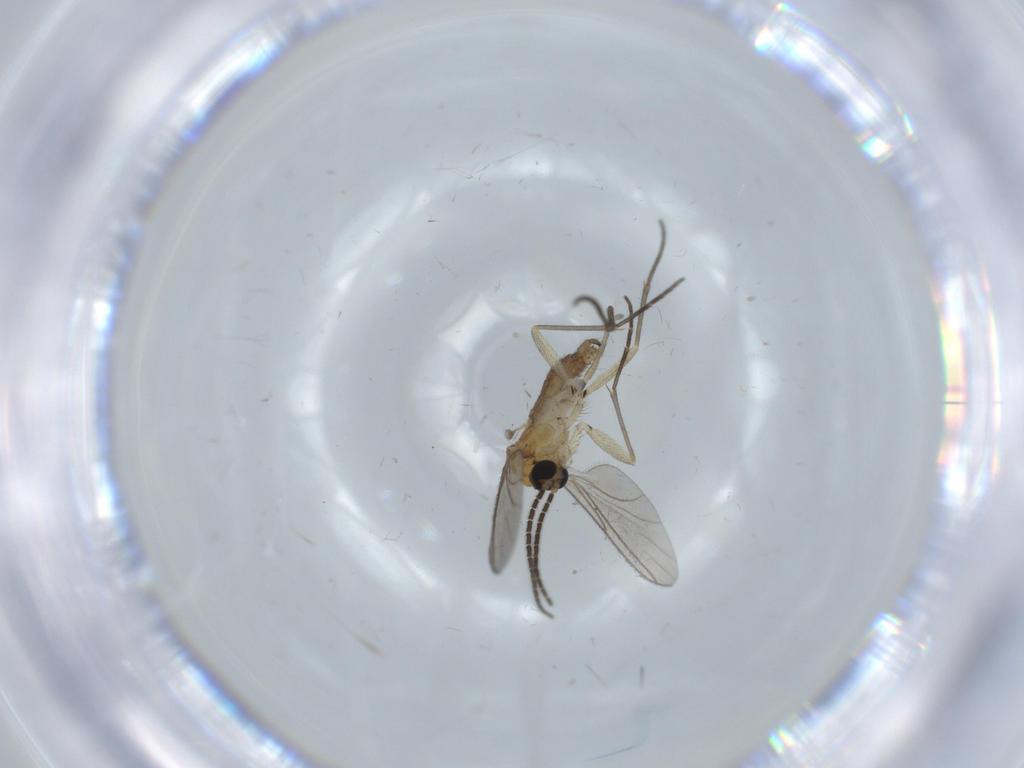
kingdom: Animalia
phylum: Arthropoda
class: Insecta
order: Diptera
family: Sciaridae
